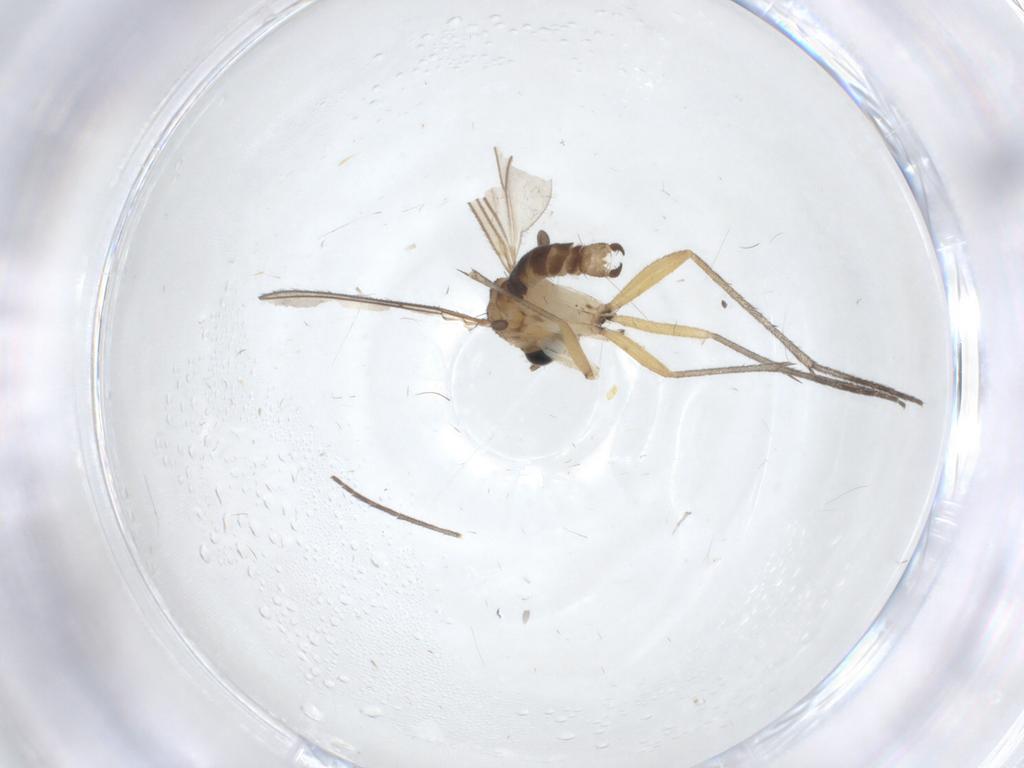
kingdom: Animalia
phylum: Arthropoda
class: Insecta
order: Diptera
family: Sciaridae
